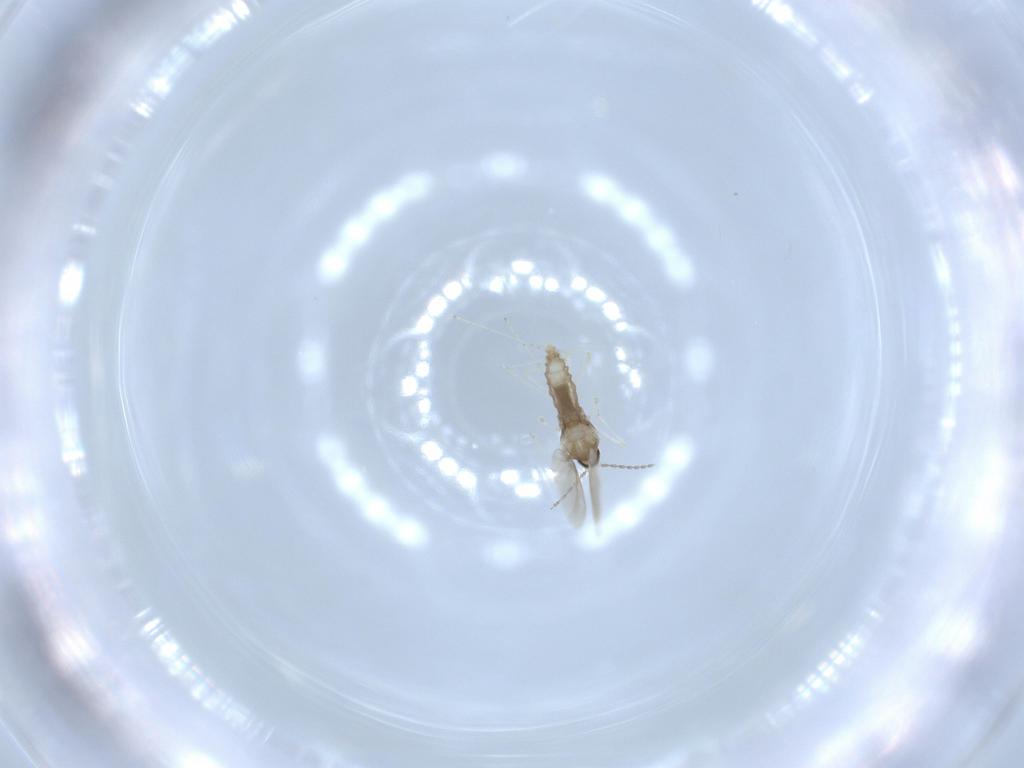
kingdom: Animalia
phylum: Arthropoda
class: Insecta
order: Diptera
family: Cecidomyiidae
